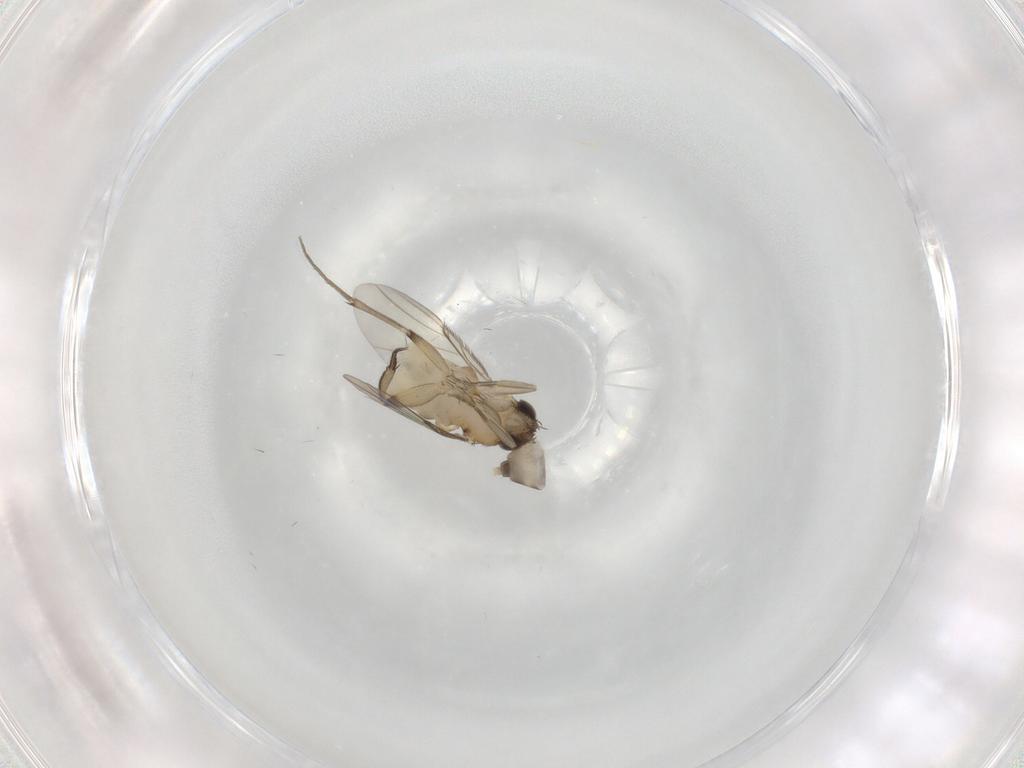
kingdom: Animalia
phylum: Arthropoda
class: Insecta
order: Diptera
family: Phoridae
